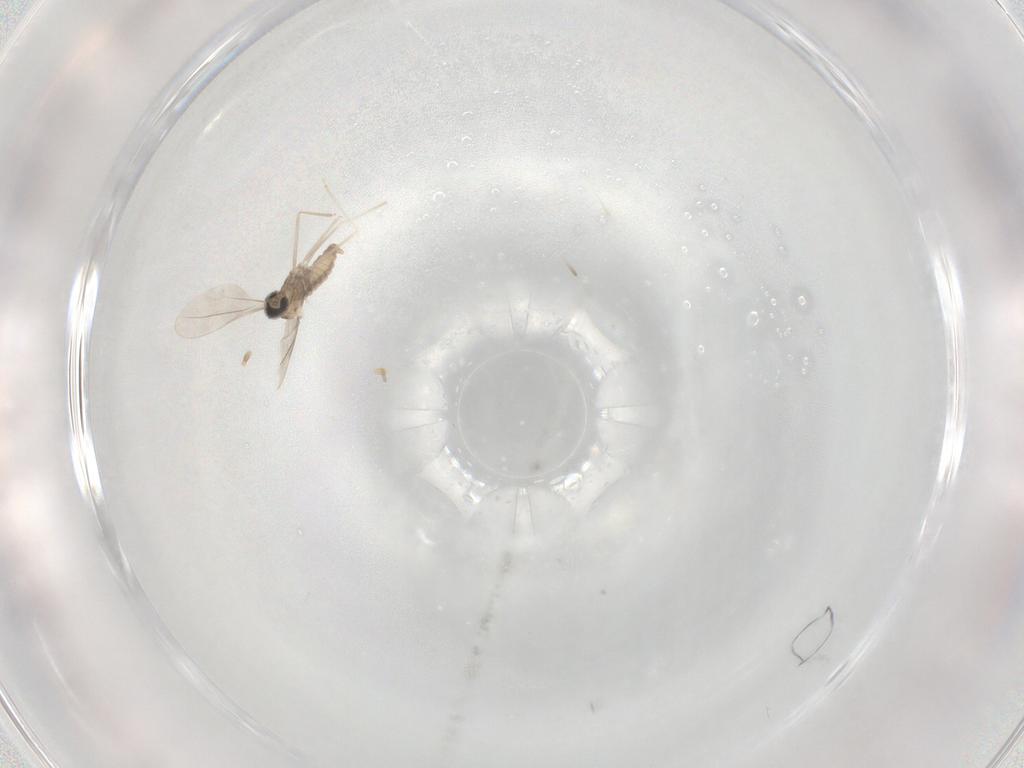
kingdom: Animalia
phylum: Arthropoda
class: Insecta
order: Diptera
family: Cecidomyiidae
